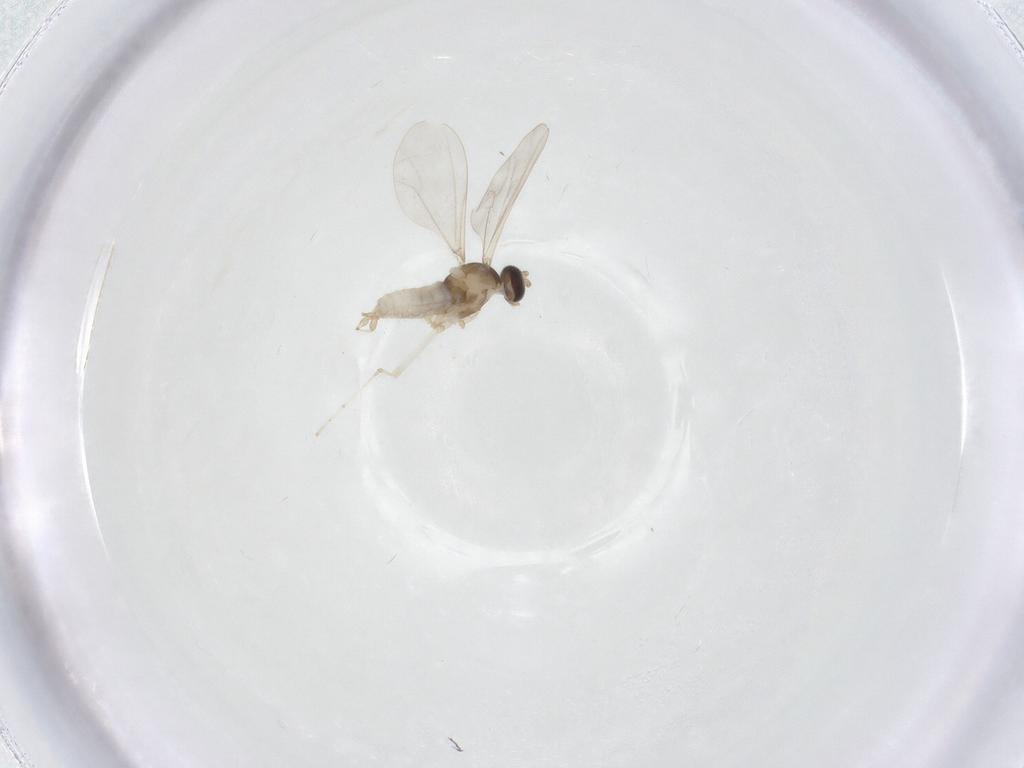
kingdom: Animalia
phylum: Arthropoda
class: Insecta
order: Diptera
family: Cecidomyiidae
